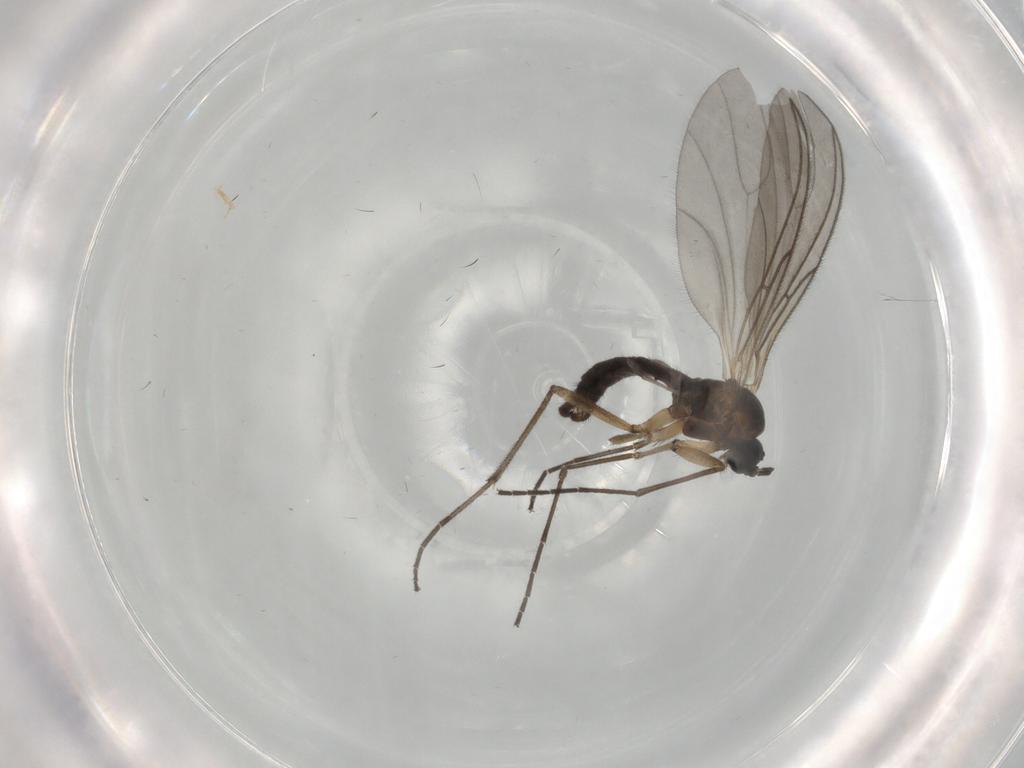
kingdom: Animalia
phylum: Arthropoda
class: Insecta
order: Diptera
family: Sciaridae
